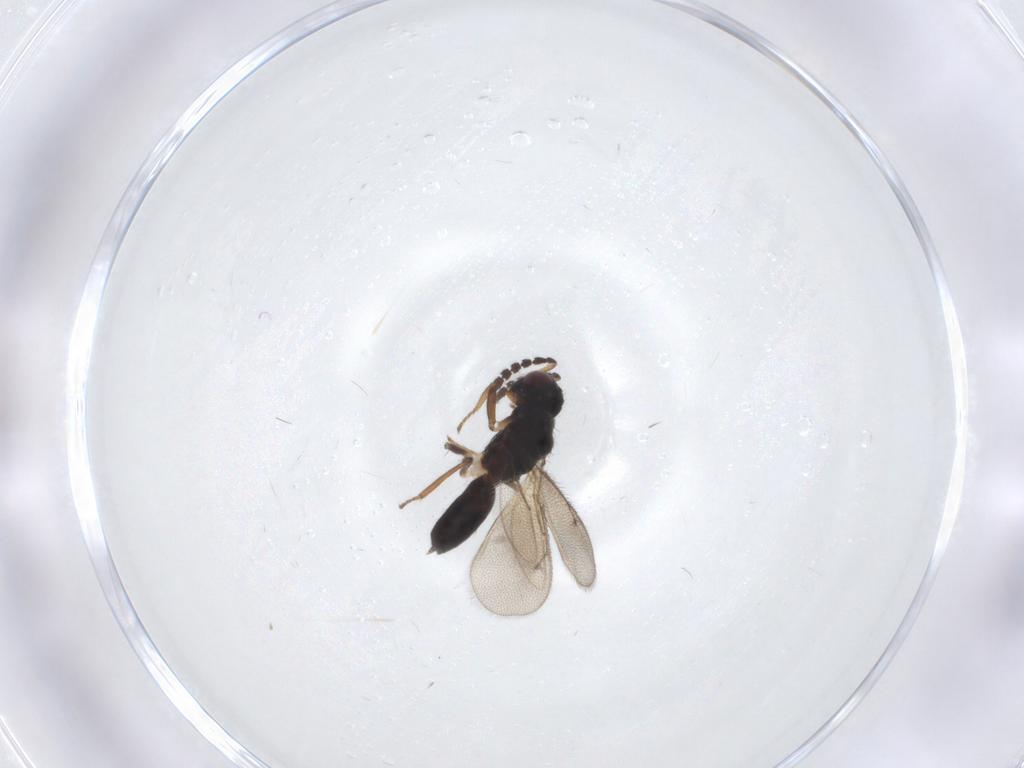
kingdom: Animalia
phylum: Arthropoda
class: Insecta
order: Hymenoptera
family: Eulophidae
